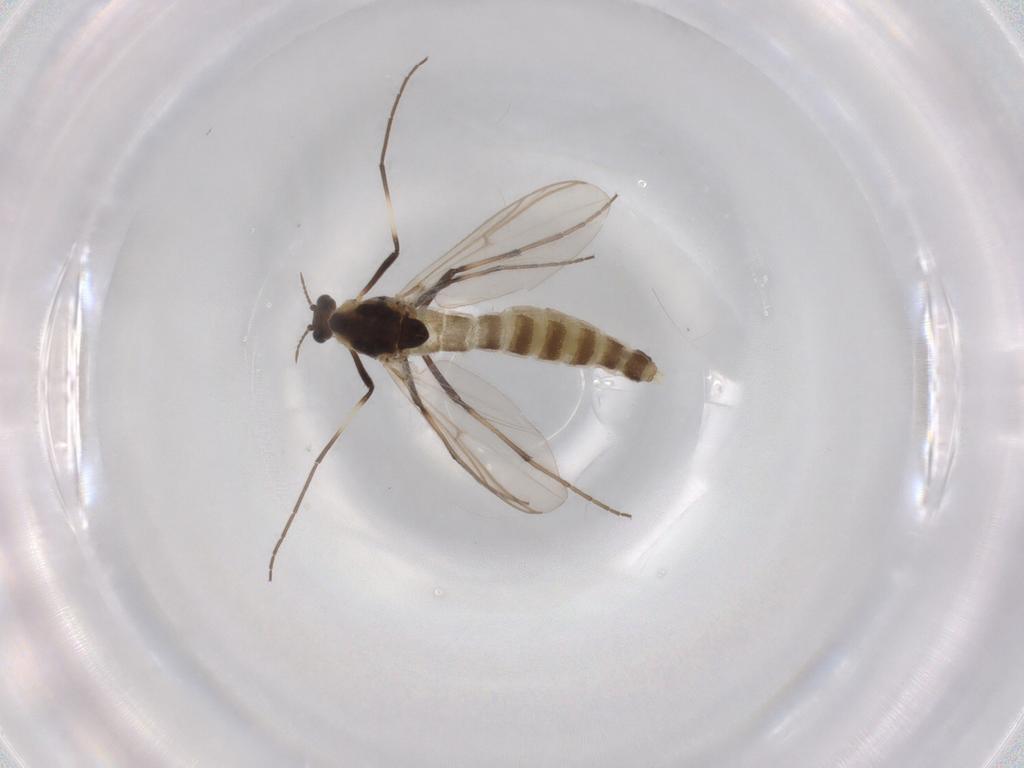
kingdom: Animalia
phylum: Arthropoda
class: Insecta
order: Diptera
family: Chironomidae
